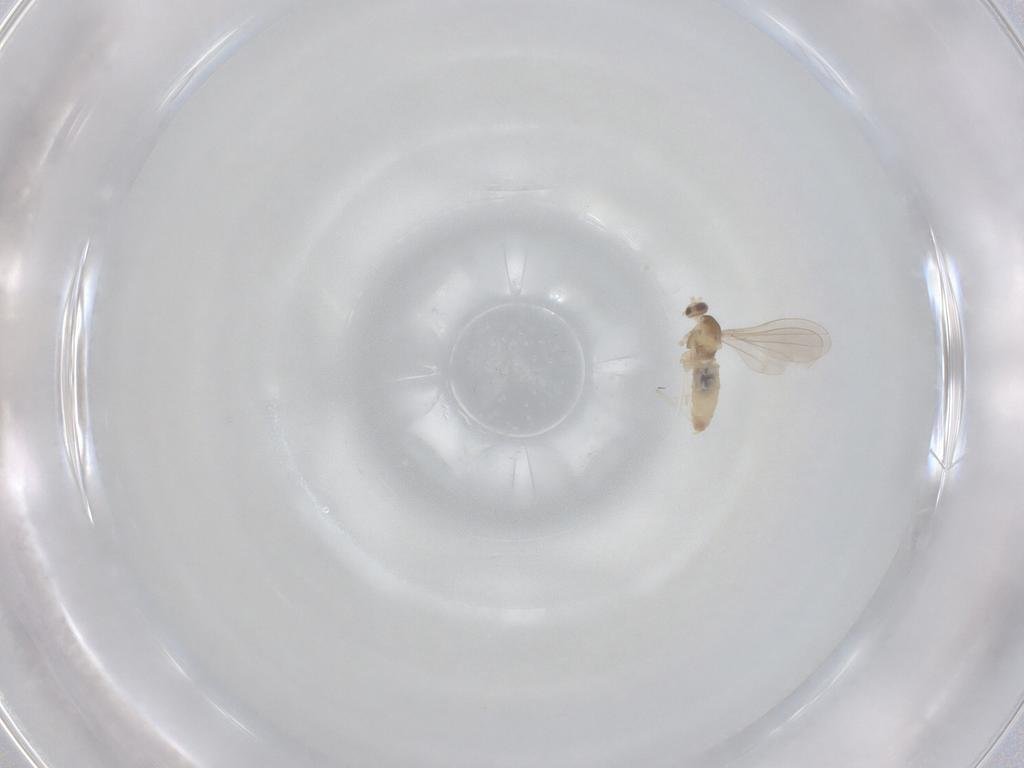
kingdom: Animalia
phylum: Arthropoda
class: Insecta
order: Diptera
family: Cecidomyiidae
